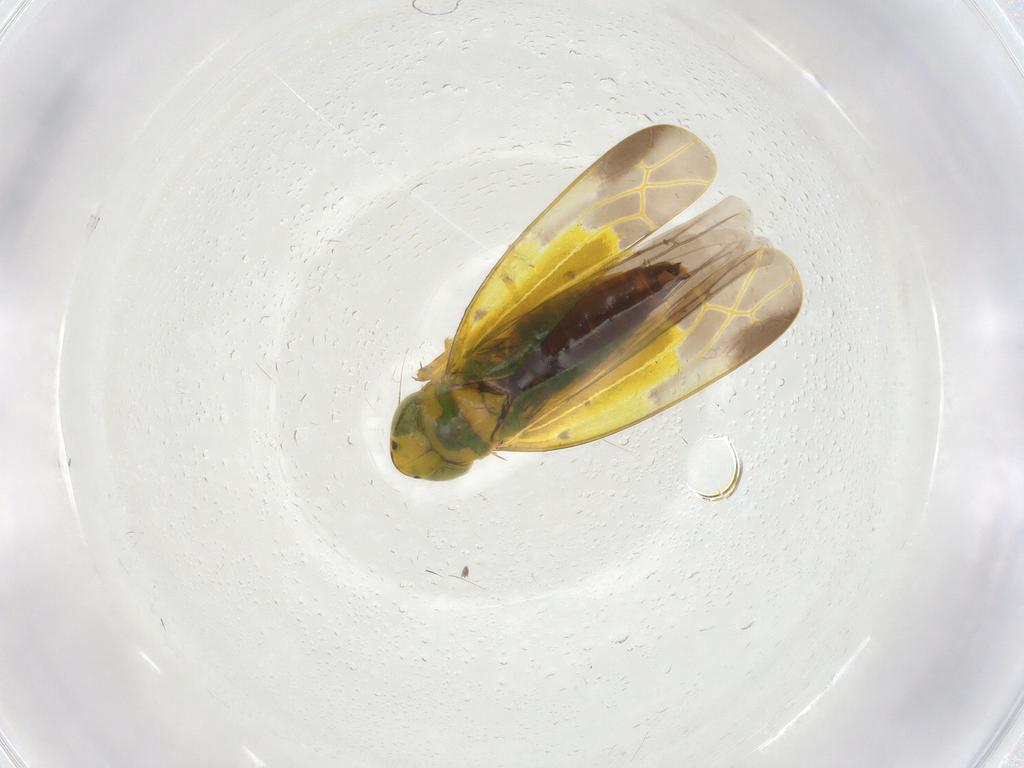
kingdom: Animalia
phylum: Arthropoda
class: Insecta
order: Hemiptera
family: Cicadellidae
